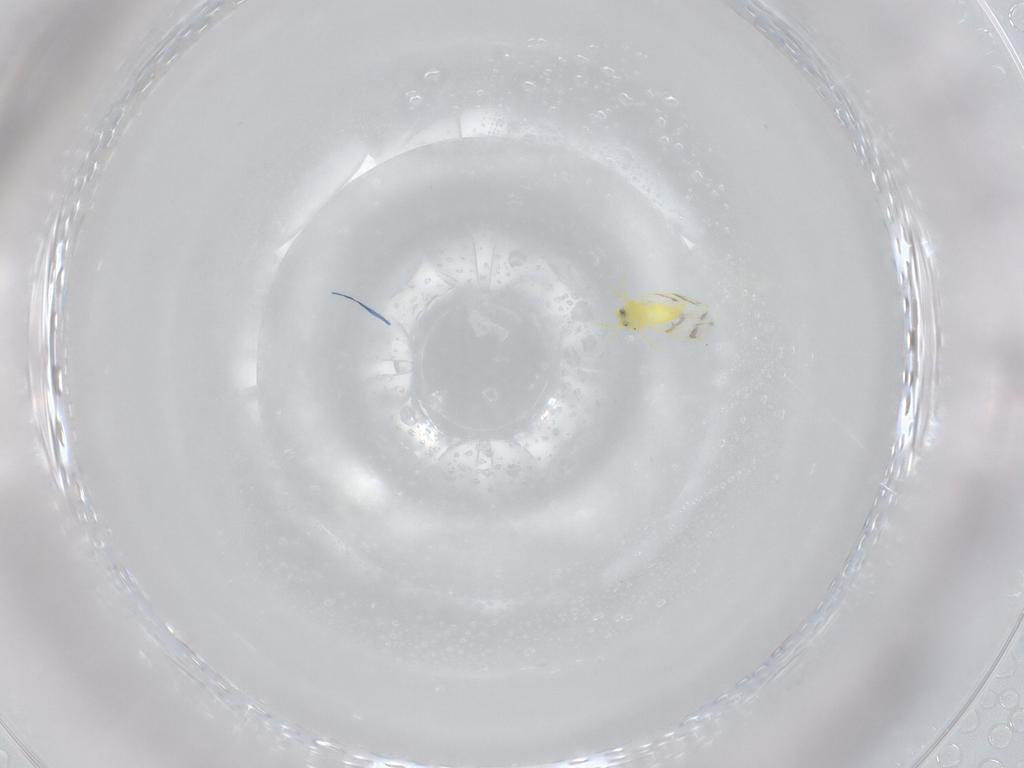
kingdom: Animalia
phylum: Arthropoda
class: Insecta
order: Hemiptera
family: Aleyrodidae
